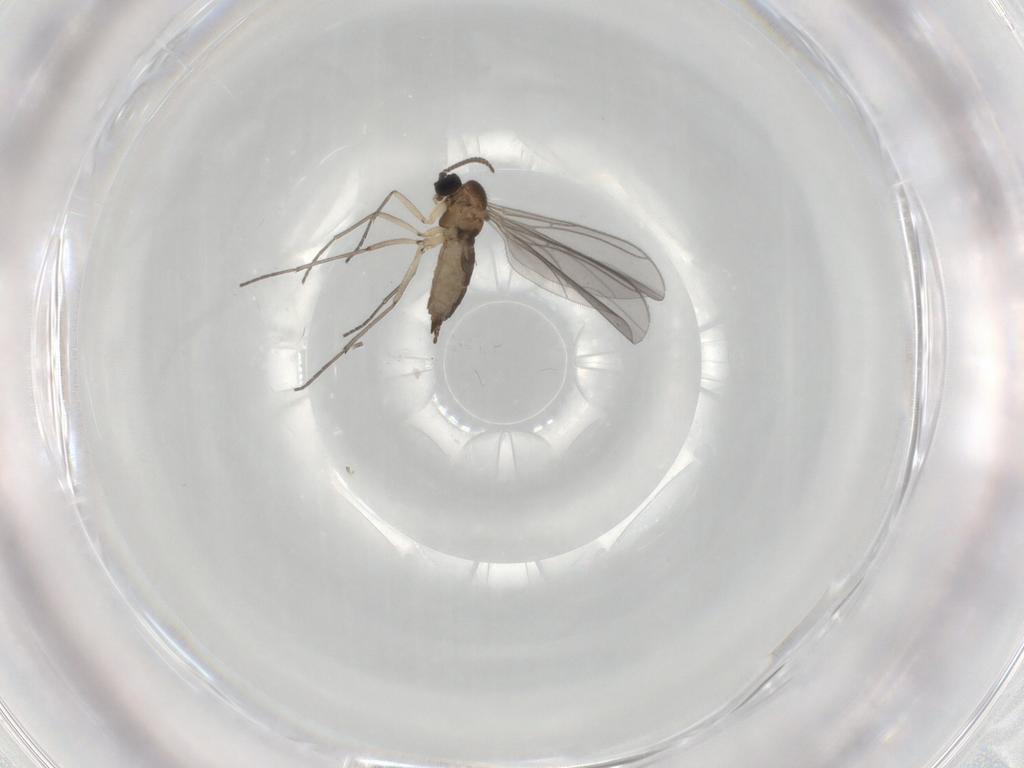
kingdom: Animalia
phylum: Arthropoda
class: Insecta
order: Diptera
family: Sciaridae
